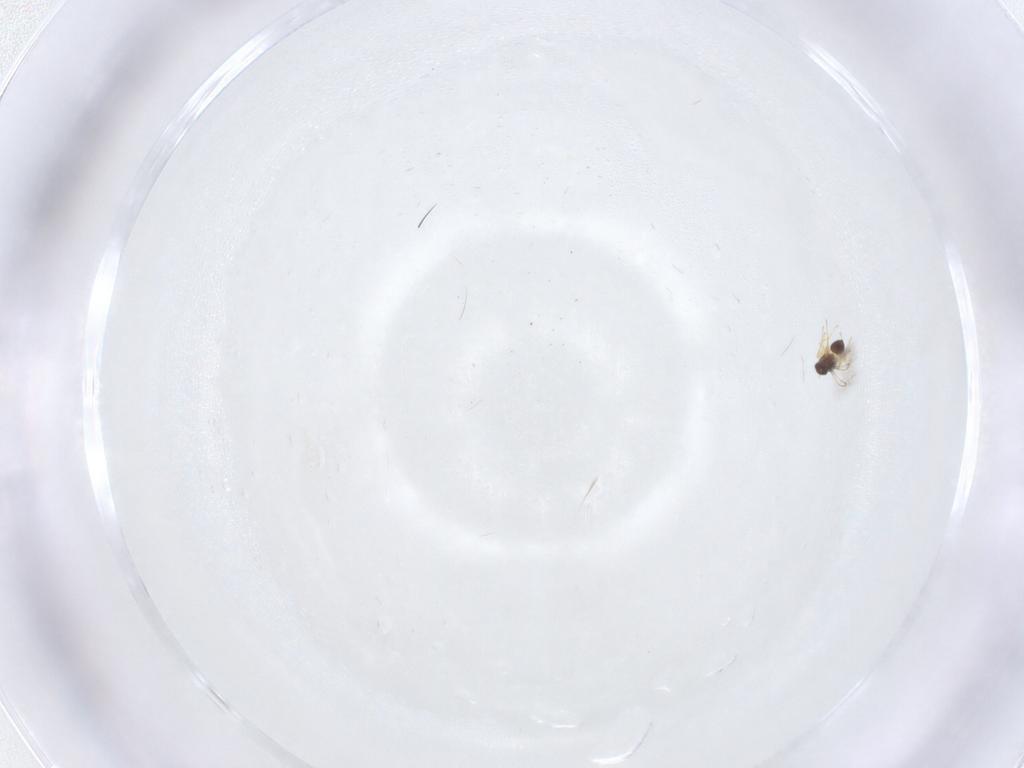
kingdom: Animalia
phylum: Arthropoda
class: Insecta
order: Hymenoptera
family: Mymaridae
